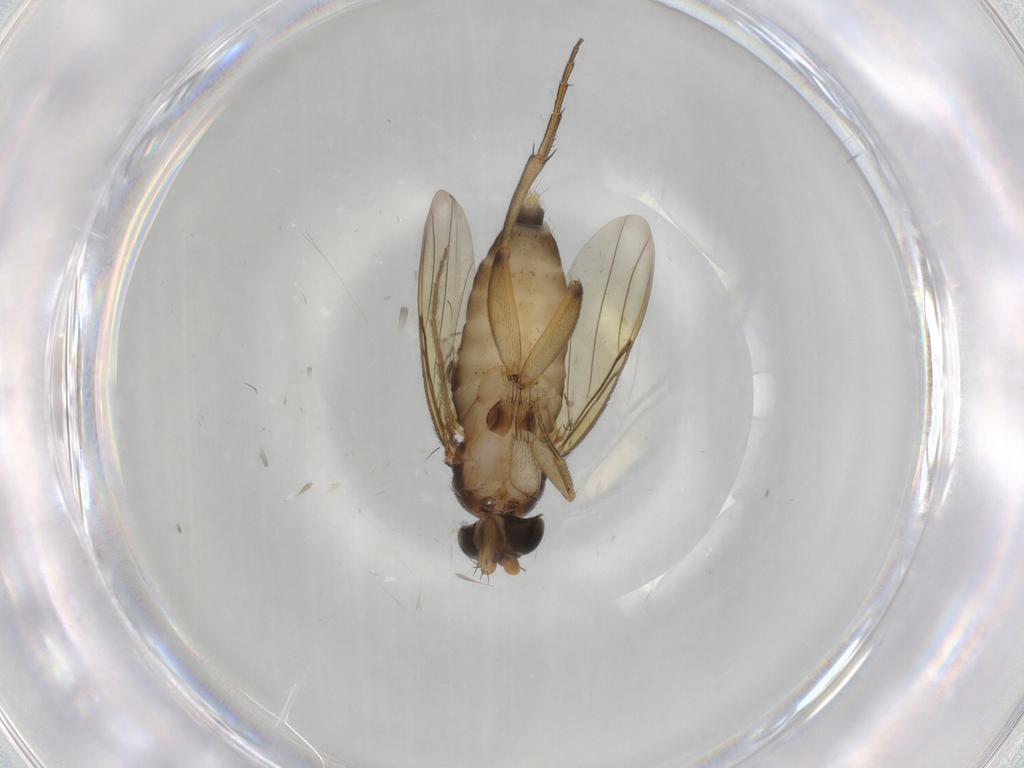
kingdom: Animalia
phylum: Arthropoda
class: Insecta
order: Diptera
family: Phoridae
